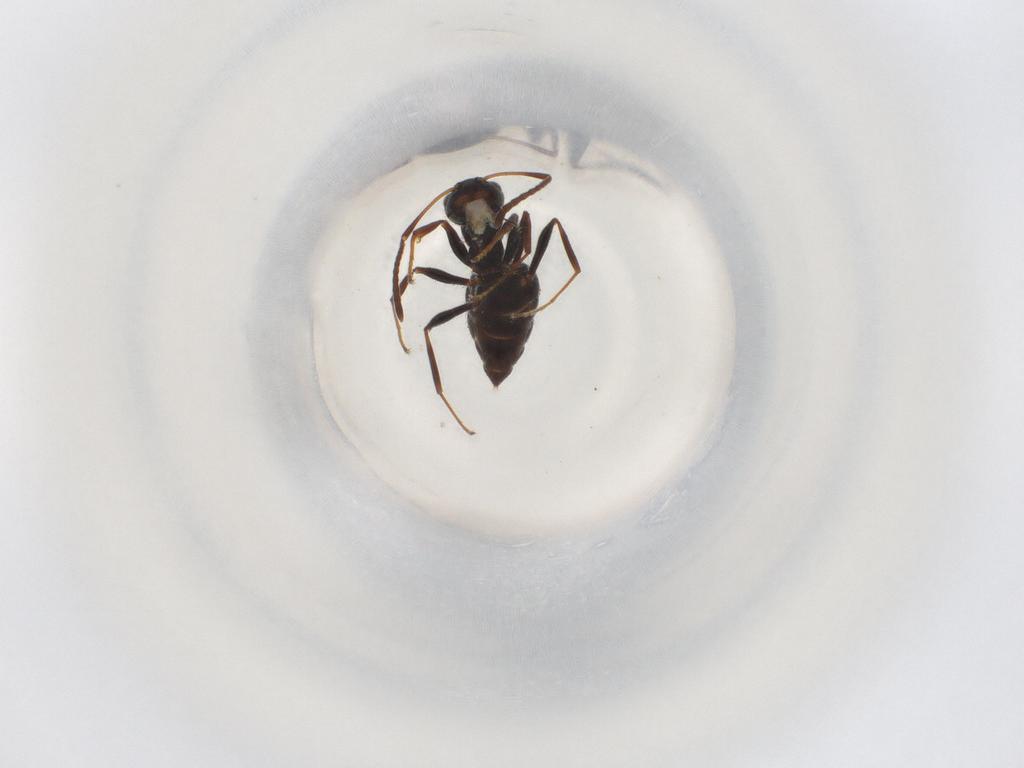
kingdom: Animalia
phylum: Arthropoda
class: Insecta
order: Hymenoptera
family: Formicidae
